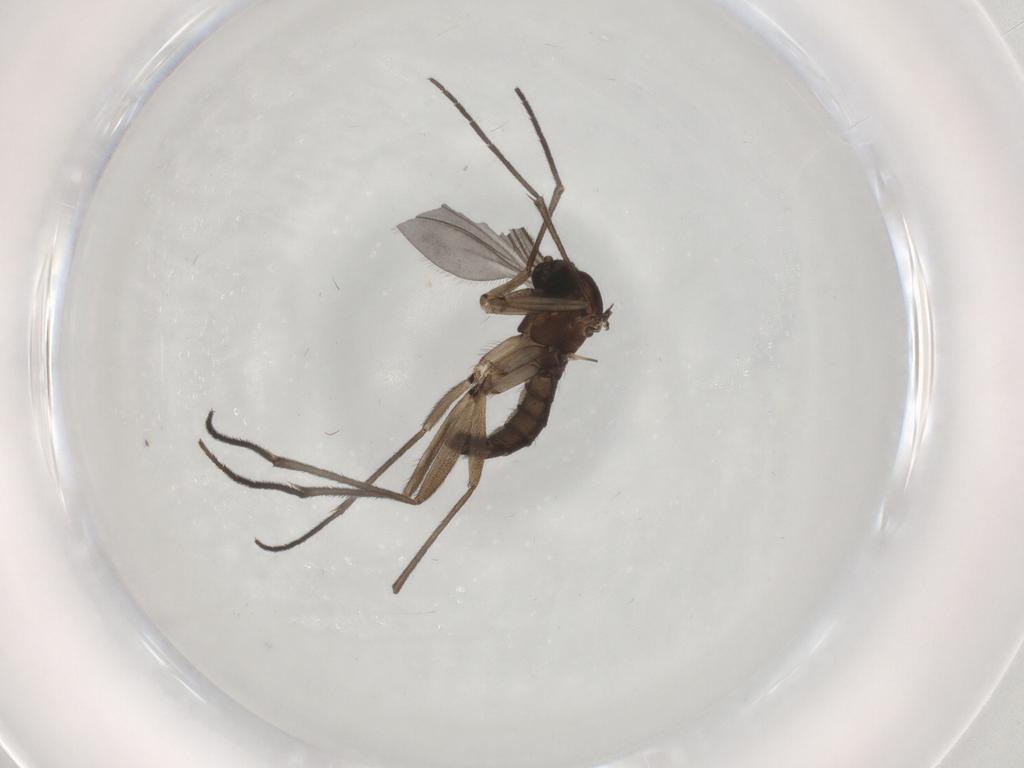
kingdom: Animalia
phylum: Arthropoda
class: Insecta
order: Diptera
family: Sciaridae
